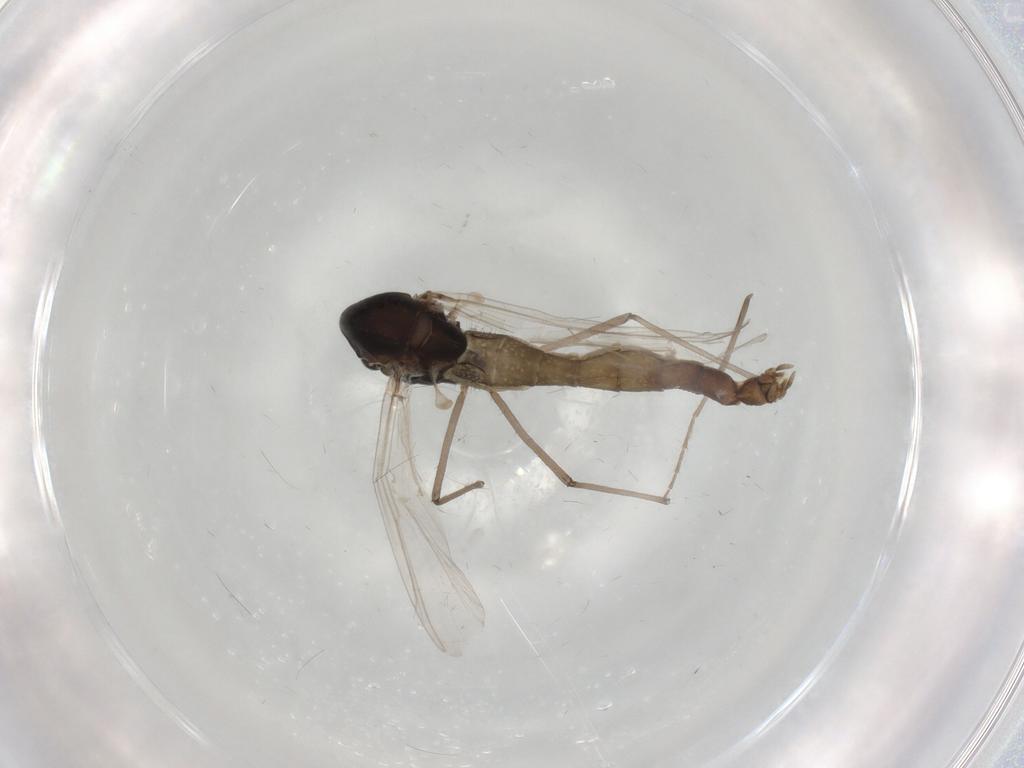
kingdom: Animalia
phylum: Arthropoda
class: Insecta
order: Diptera
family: Chironomidae
